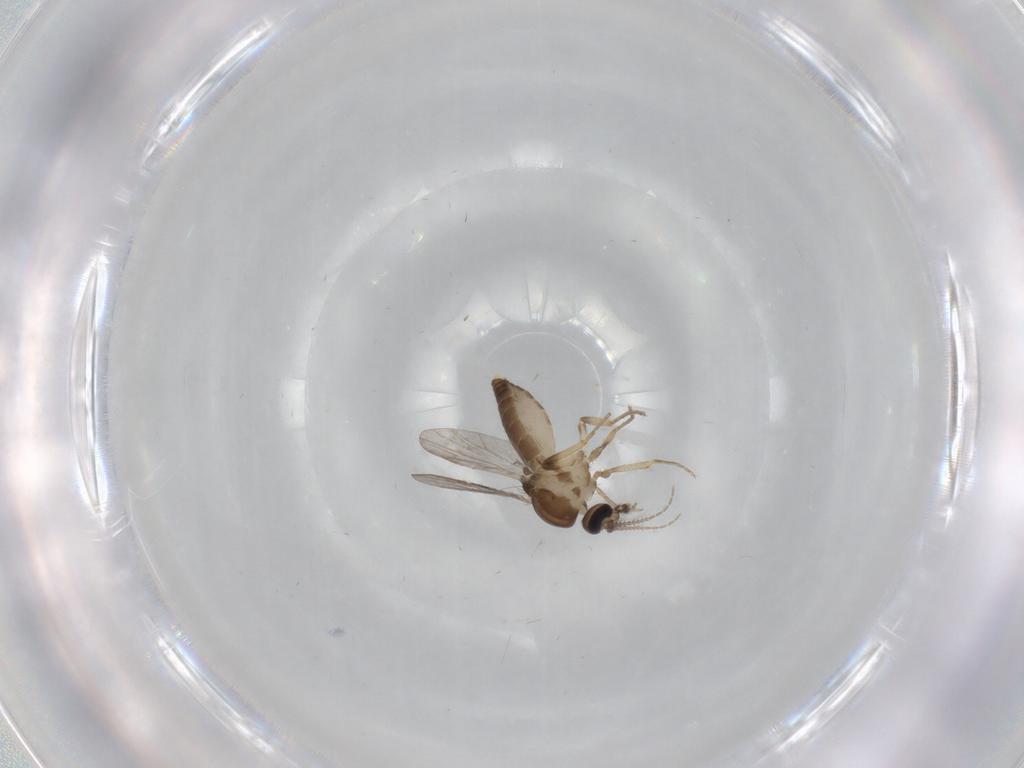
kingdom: Animalia
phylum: Arthropoda
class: Insecta
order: Diptera
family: Ceratopogonidae
